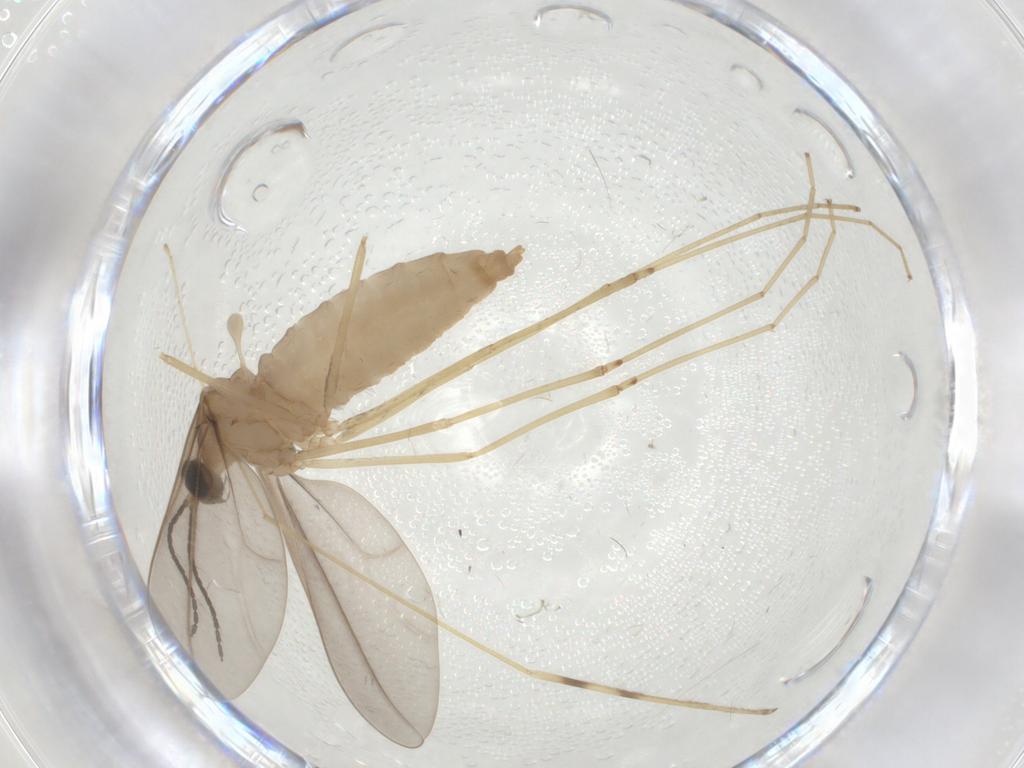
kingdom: Animalia
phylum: Arthropoda
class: Insecta
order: Diptera
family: Cecidomyiidae
